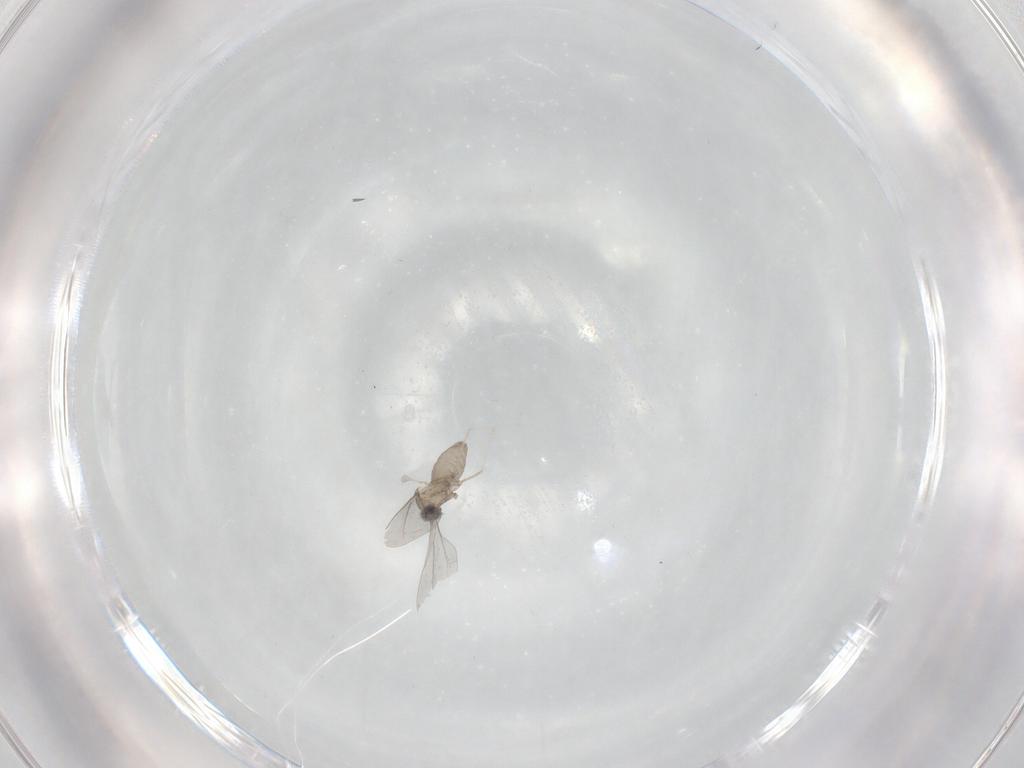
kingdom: Animalia
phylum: Arthropoda
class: Insecta
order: Diptera
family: Cecidomyiidae
